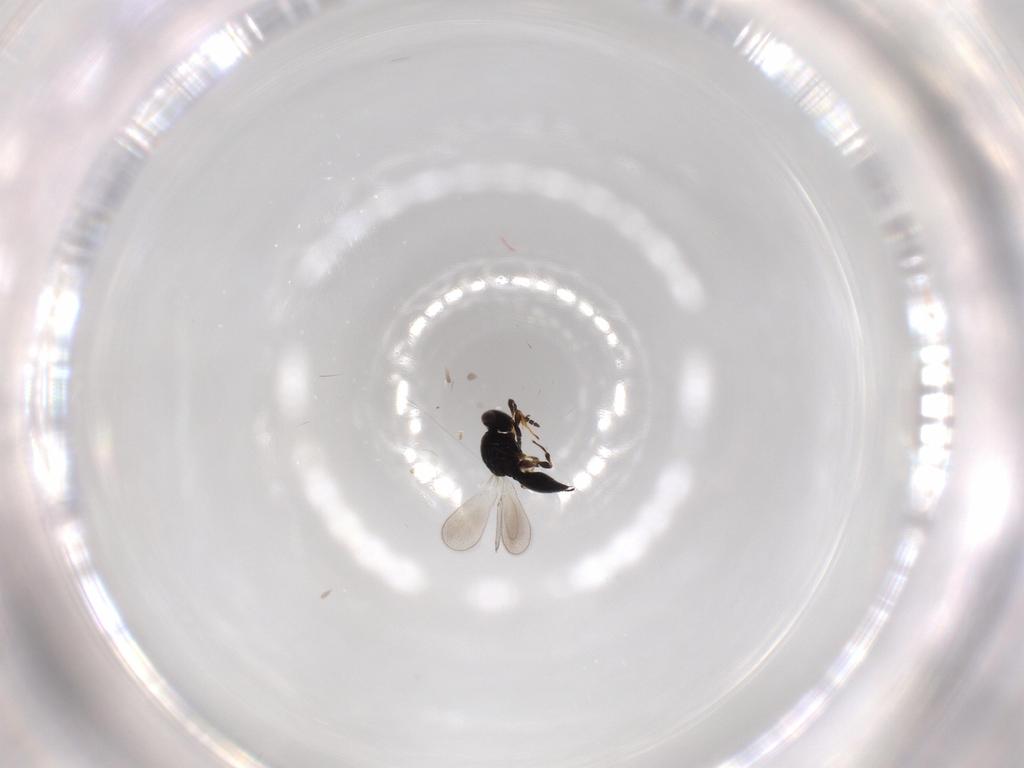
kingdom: Animalia
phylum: Arthropoda
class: Insecta
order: Hymenoptera
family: Platygastridae
